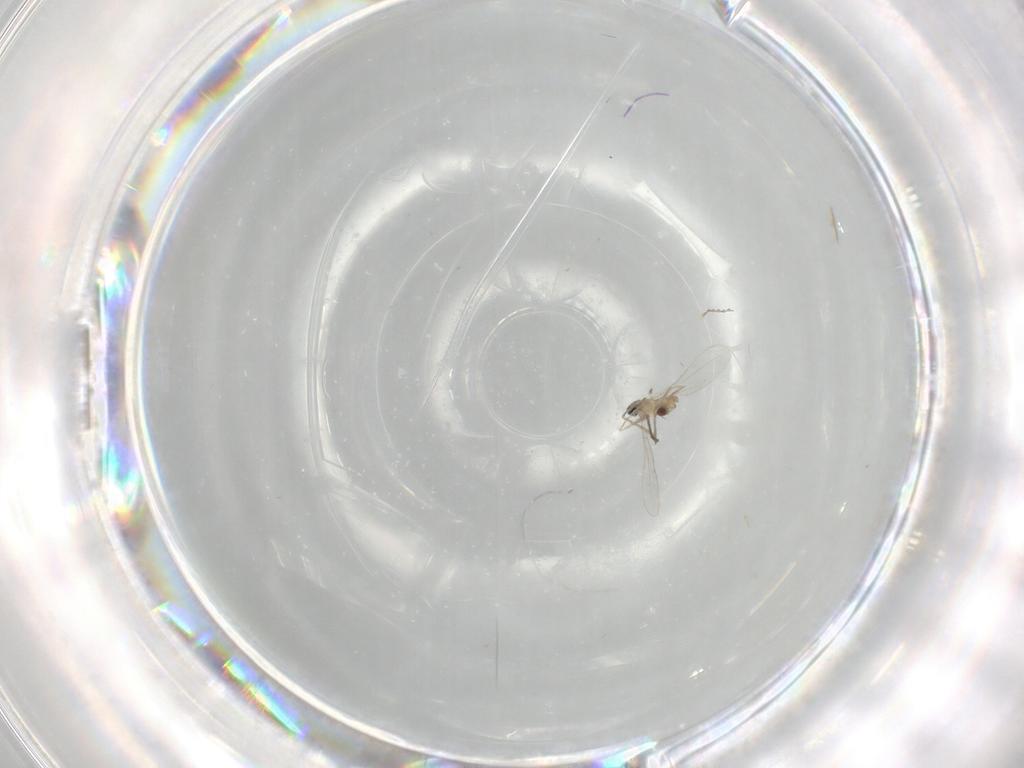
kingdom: Animalia
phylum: Arthropoda
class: Insecta
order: Diptera
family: Cecidomyiidae
